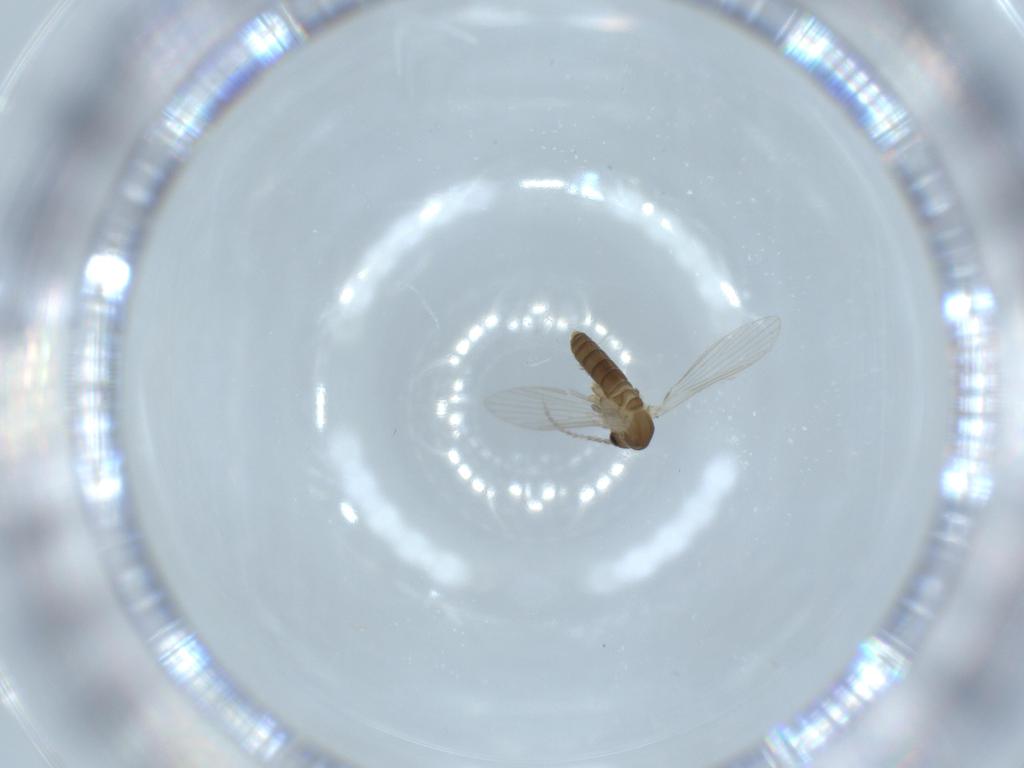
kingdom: Animalia
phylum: Arthropoda
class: Insecta
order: Diptera
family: Psychodidae
